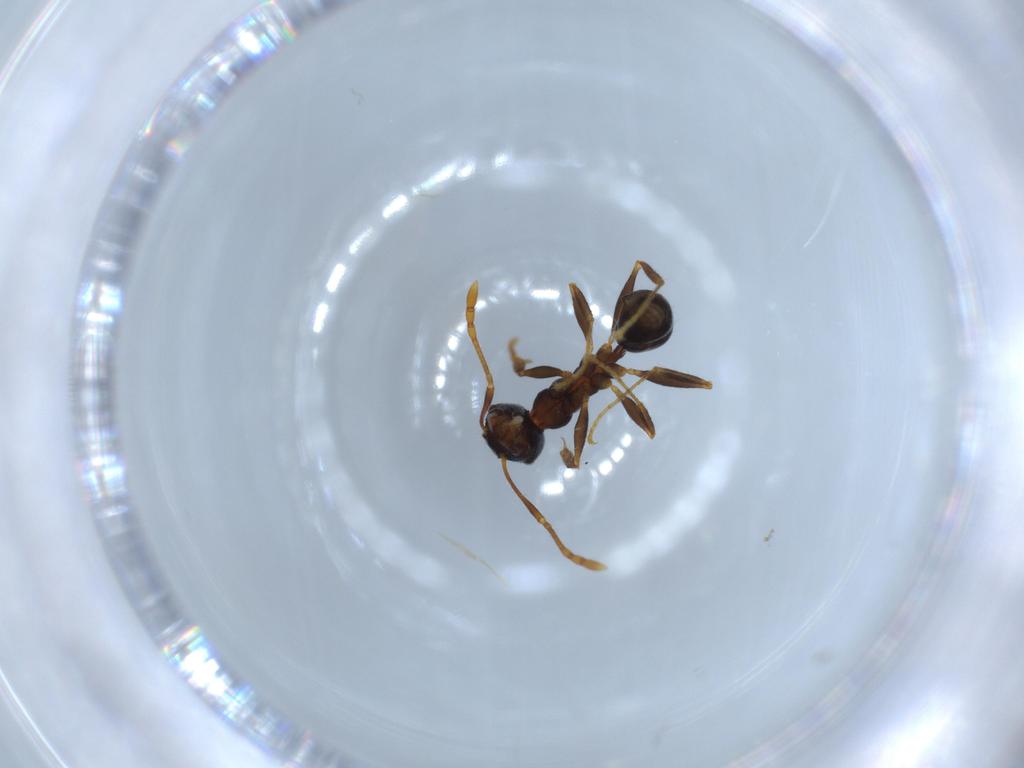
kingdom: Animalia
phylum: Arthropoda
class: Insecta
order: Hymenoptera
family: Formicidae
